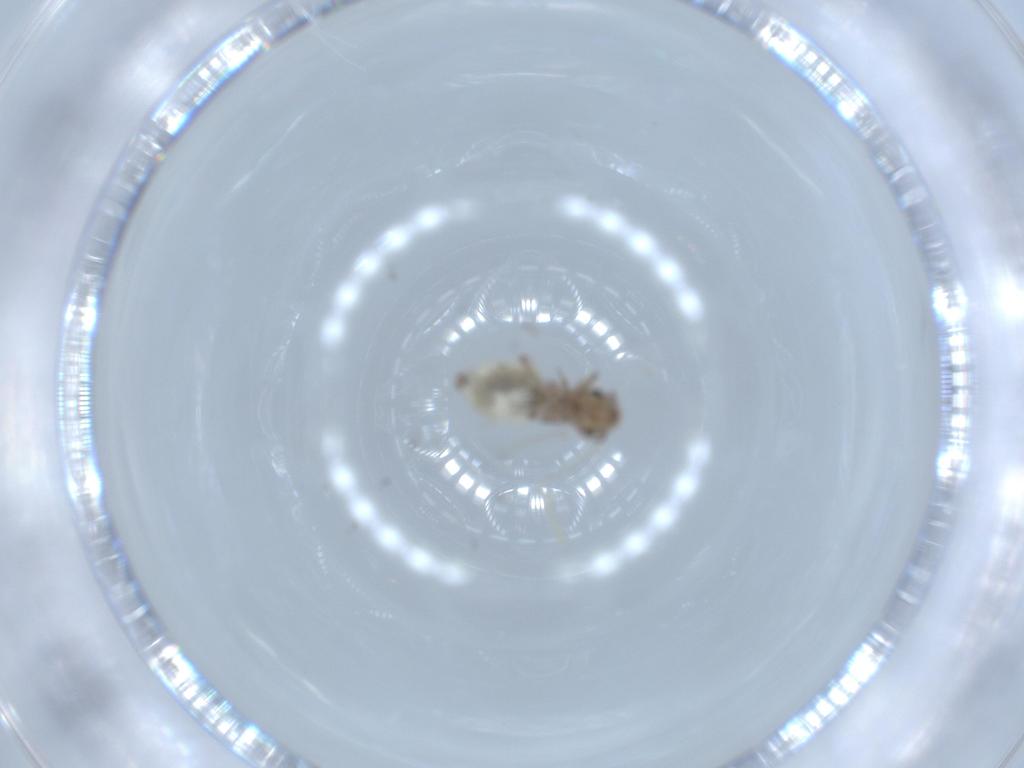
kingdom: Animalia
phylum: Arthropoda
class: Insecta
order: Psocodea
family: Lepidopsocidae
